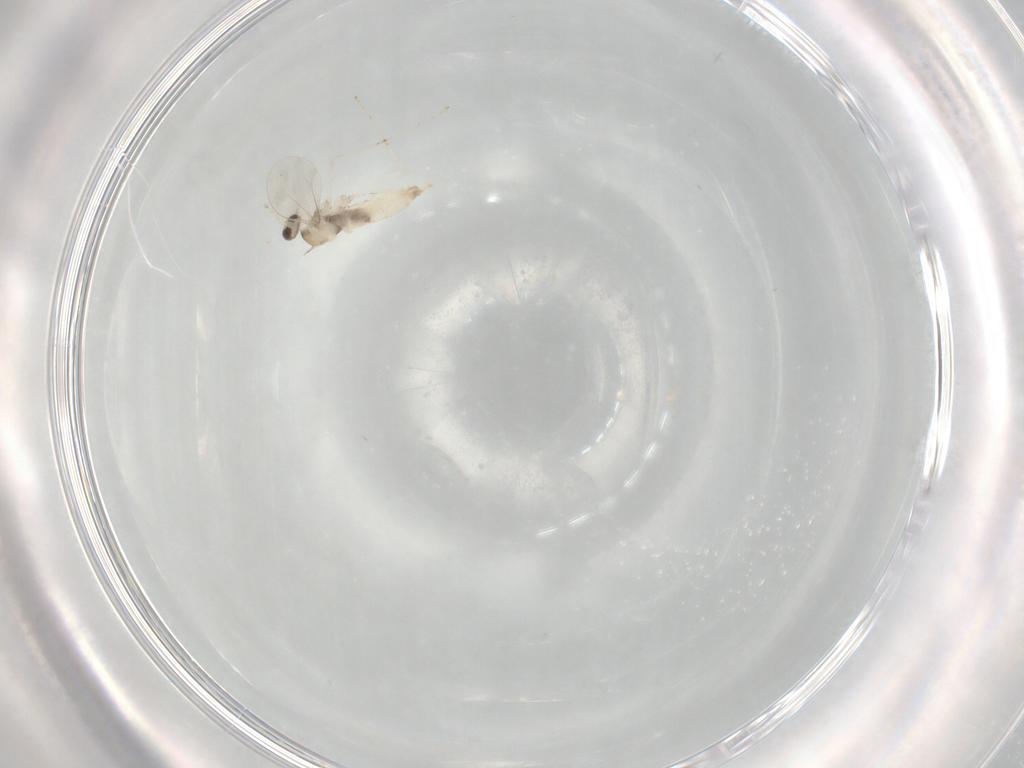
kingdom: Animalia
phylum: Arthropoda
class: Insecta
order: Diptera
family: Cecidomyiidae
